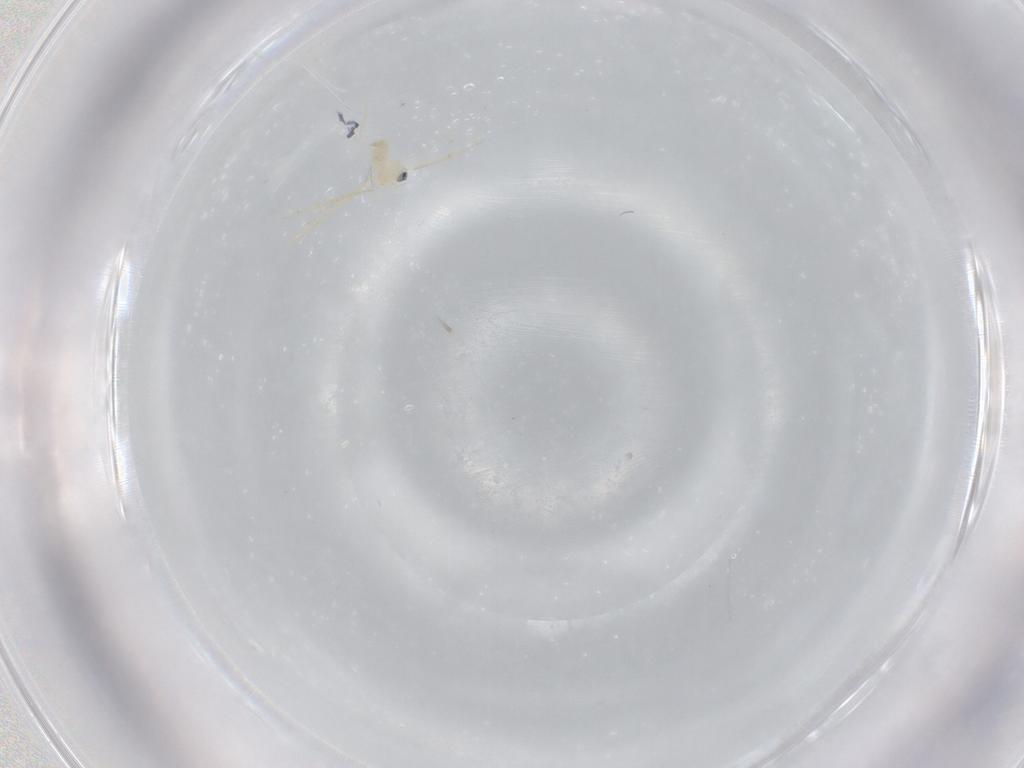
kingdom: Animalia
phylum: Arthropoda
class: Insecta
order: Diptera
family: Cecidomyiidae
